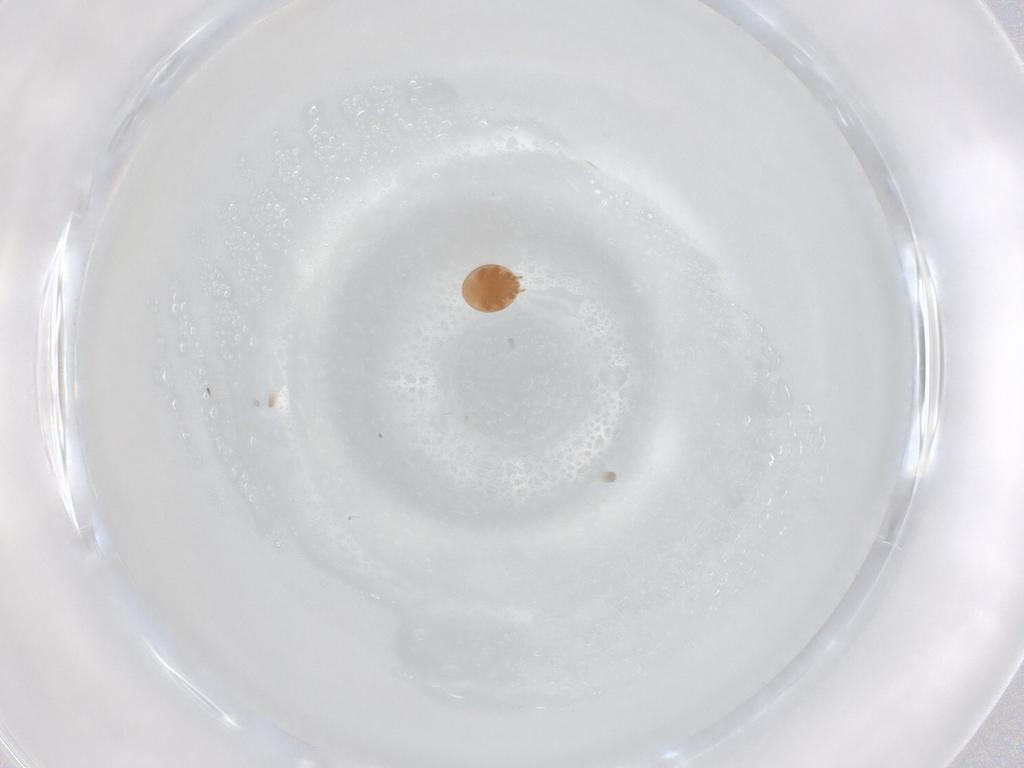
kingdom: Animalia
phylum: Arthropoda
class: Arachnida
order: Mesostigmata
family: Trematuridae
